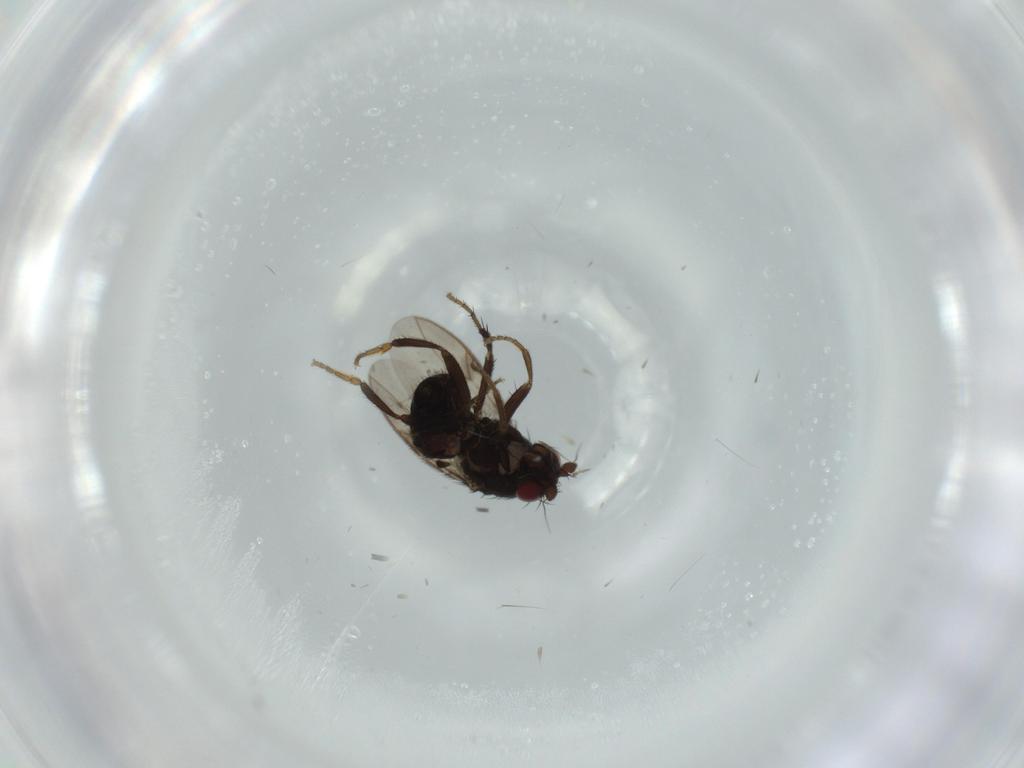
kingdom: Animalia
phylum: Arthropoda
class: Insecta
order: Diptera
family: Sphaeroceridae
